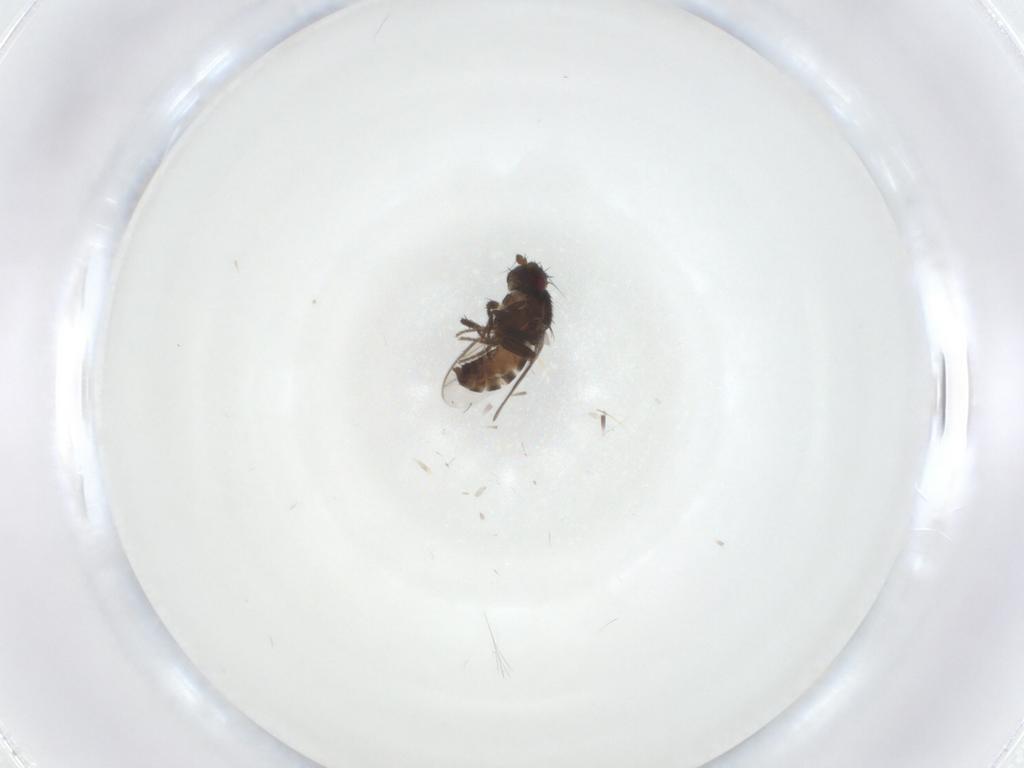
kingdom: Animalia
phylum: Arthropoda
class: Insecta
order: Diptera
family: Sphaeroceridae
